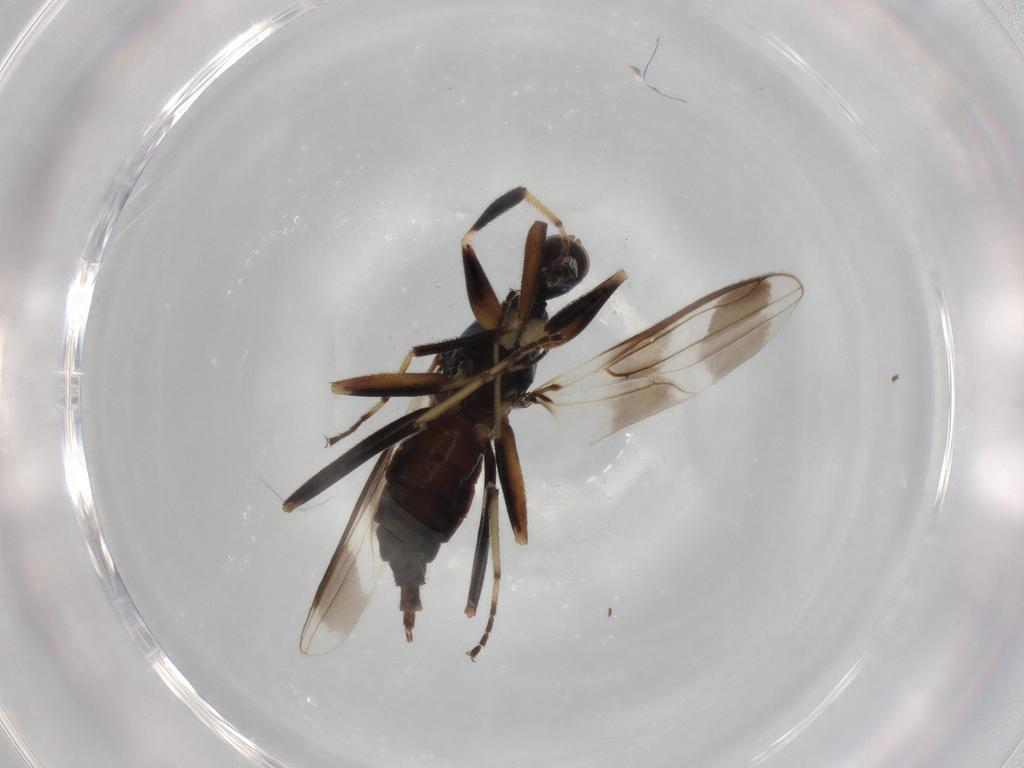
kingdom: Animalia
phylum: Arthropoda
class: Insecta
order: Diptera
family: Hybotidae
